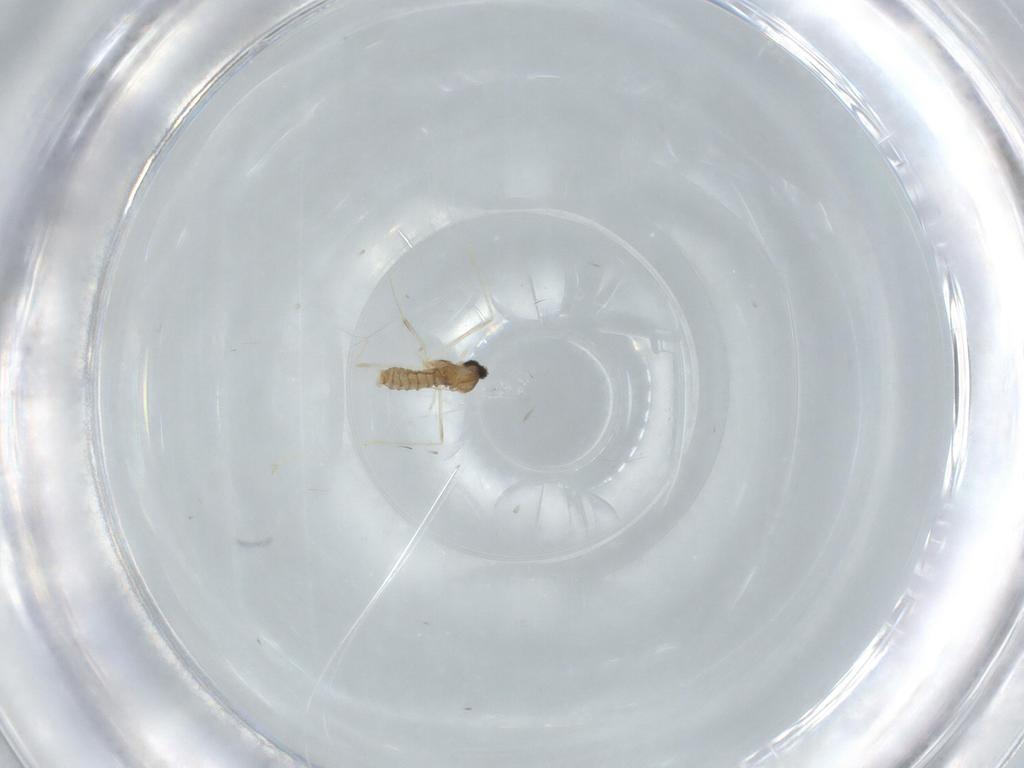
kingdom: Animalia
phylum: Arthropoda
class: Insecta
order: Diptera
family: Cecidomyiidae
